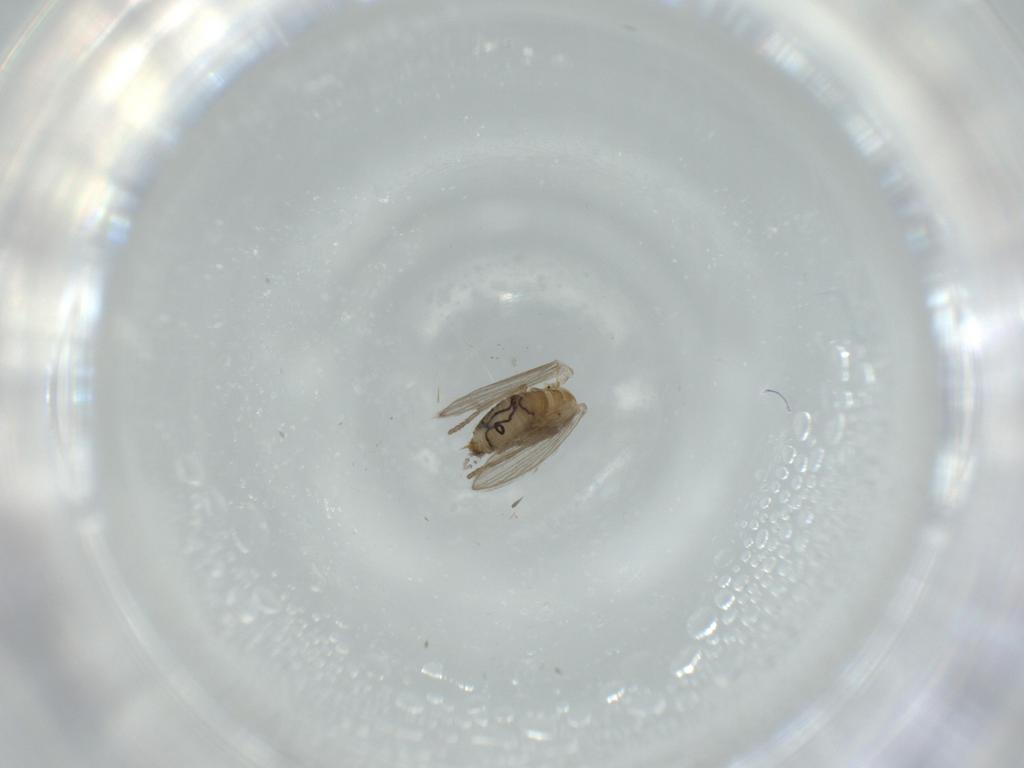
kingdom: Animalia
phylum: Arthropoda
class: Insecta
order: Diptera
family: Psychodidae
